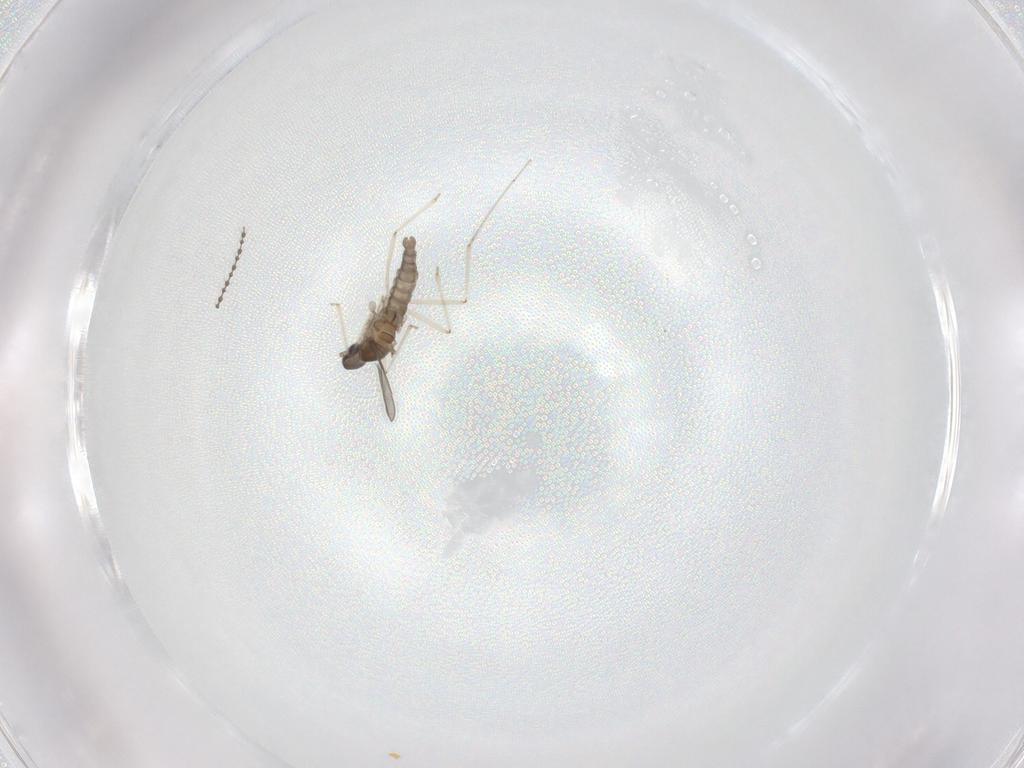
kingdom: Animalia
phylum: Arthropoda
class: Insecta
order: Diptera
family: Cecidomyiidae
